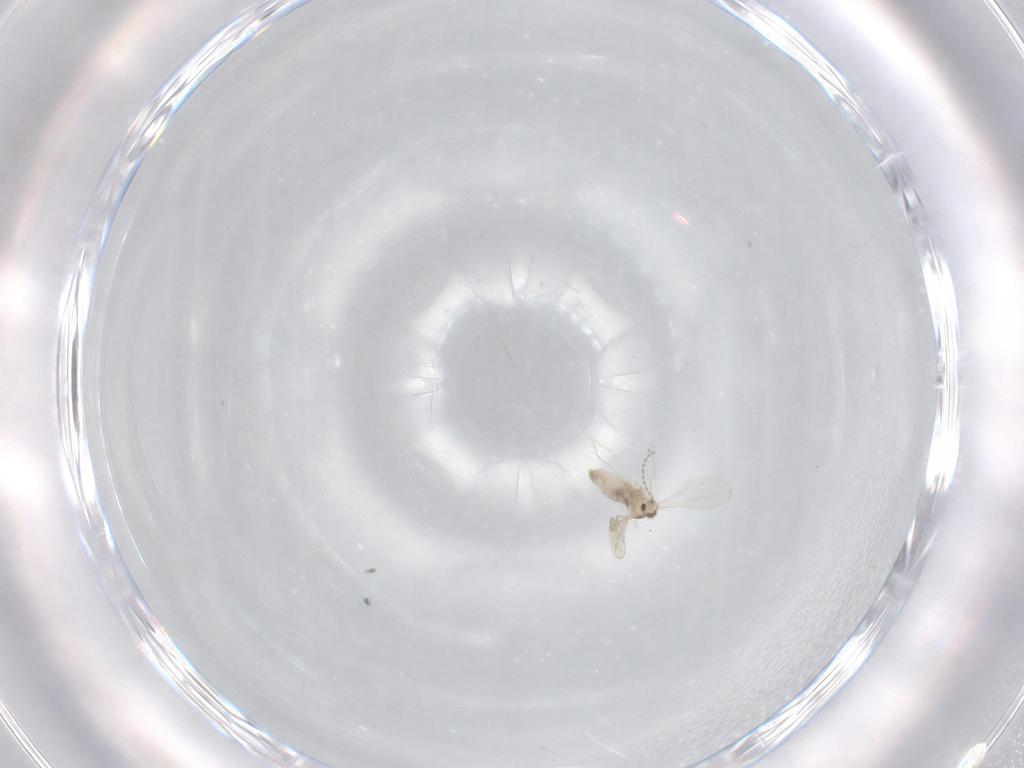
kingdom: Animalia
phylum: Arthropoda
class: Insecta
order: Diptera
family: Cecidomyiidae
